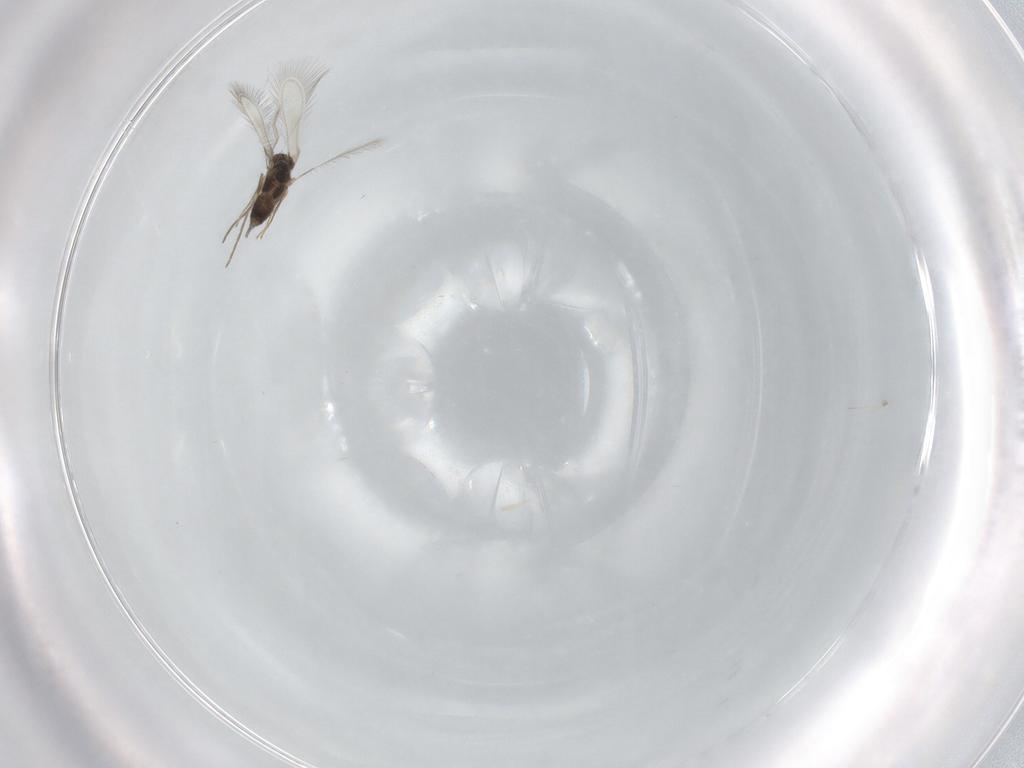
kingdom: Animalia
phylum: Arthropoda
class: Insecta
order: Hymenoptera
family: Mymaridae
